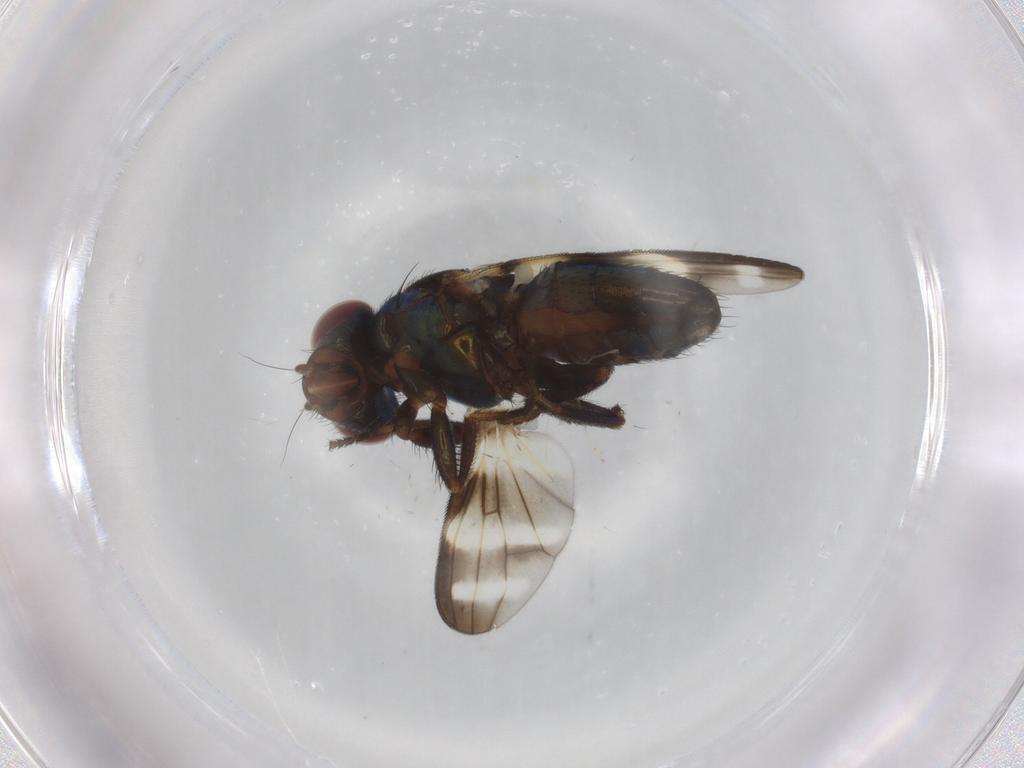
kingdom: Animalia
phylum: Arthropoda
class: Insecta
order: Diptera
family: Ulidiidae
